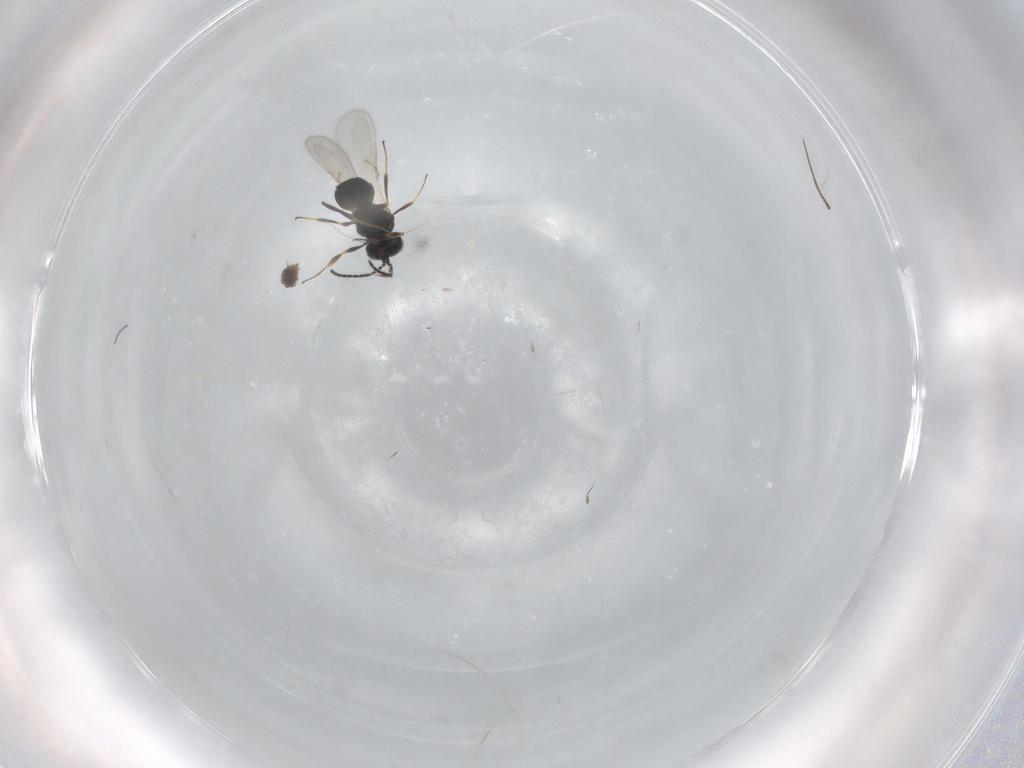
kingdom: Animalia
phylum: Arthropoda
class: Insecta
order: Hymenoptera
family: Scelionidae
